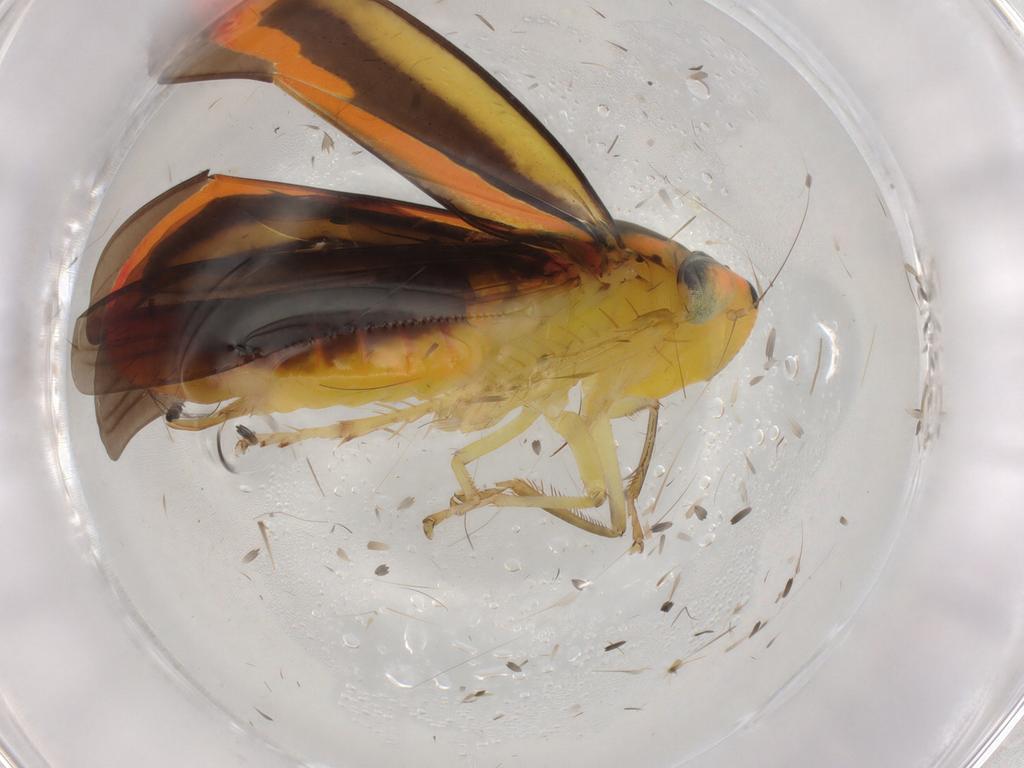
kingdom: Animalia
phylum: Arthropoda
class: Insecta
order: Hemiptera
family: Cicadellidae
